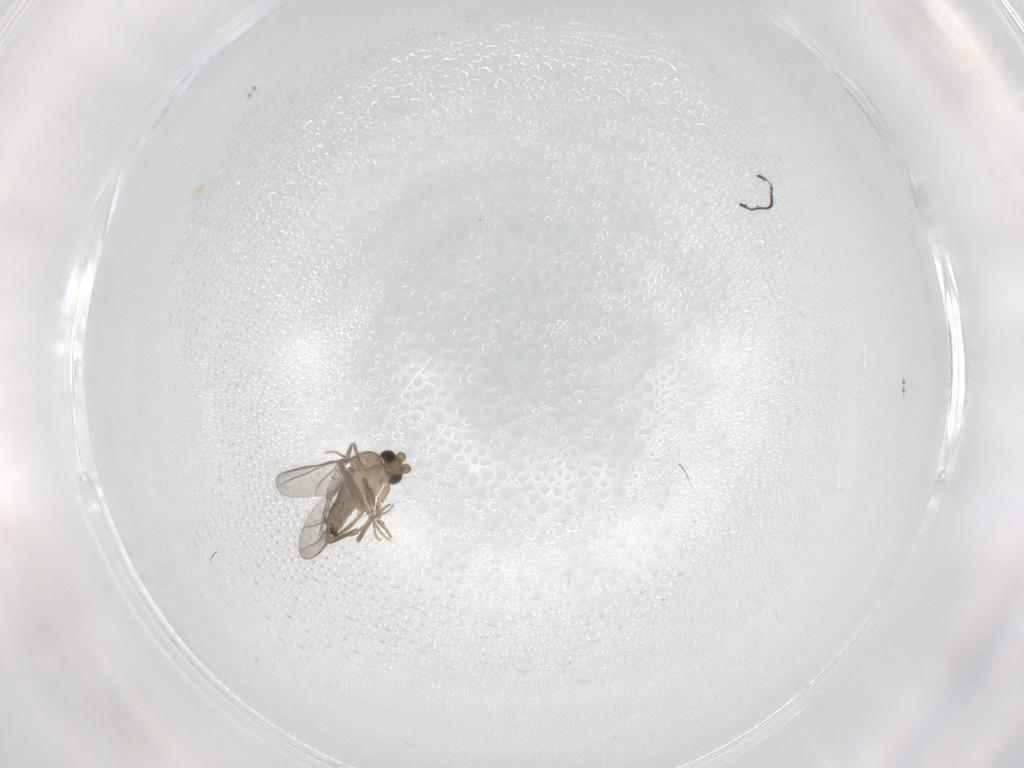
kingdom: Animalia
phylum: Arthropoda
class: Insecta
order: Diptera
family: Cecidomyiidae
